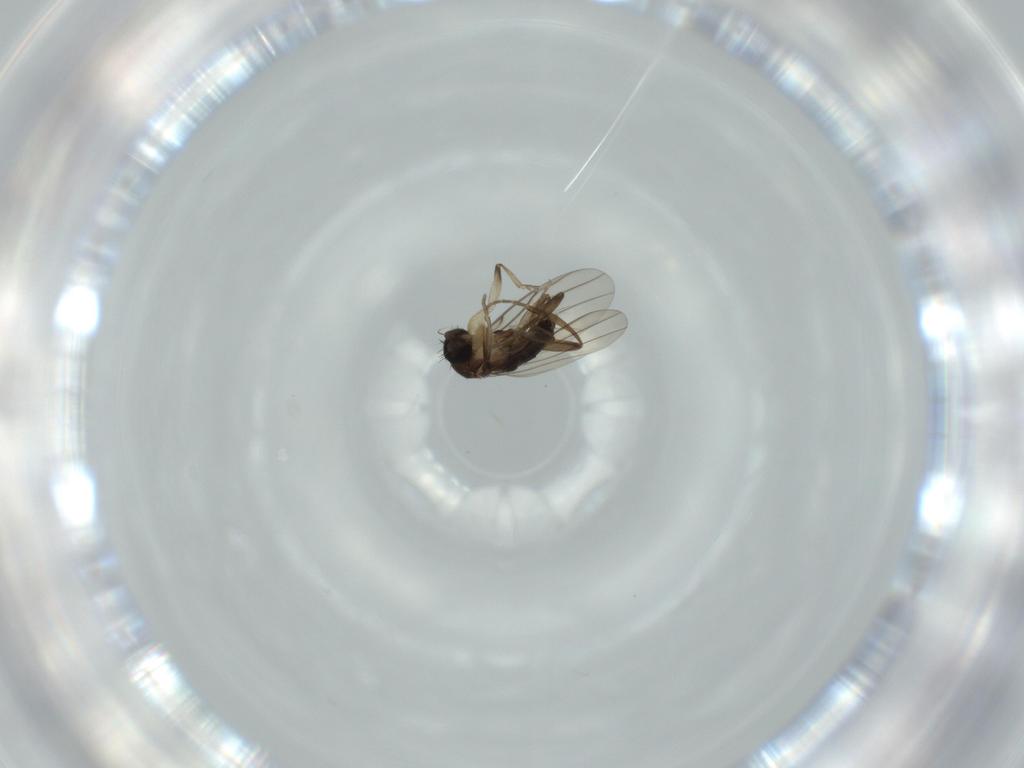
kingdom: Animalia
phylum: Arthropoda
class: Insecta
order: Diptera
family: Phoridae
